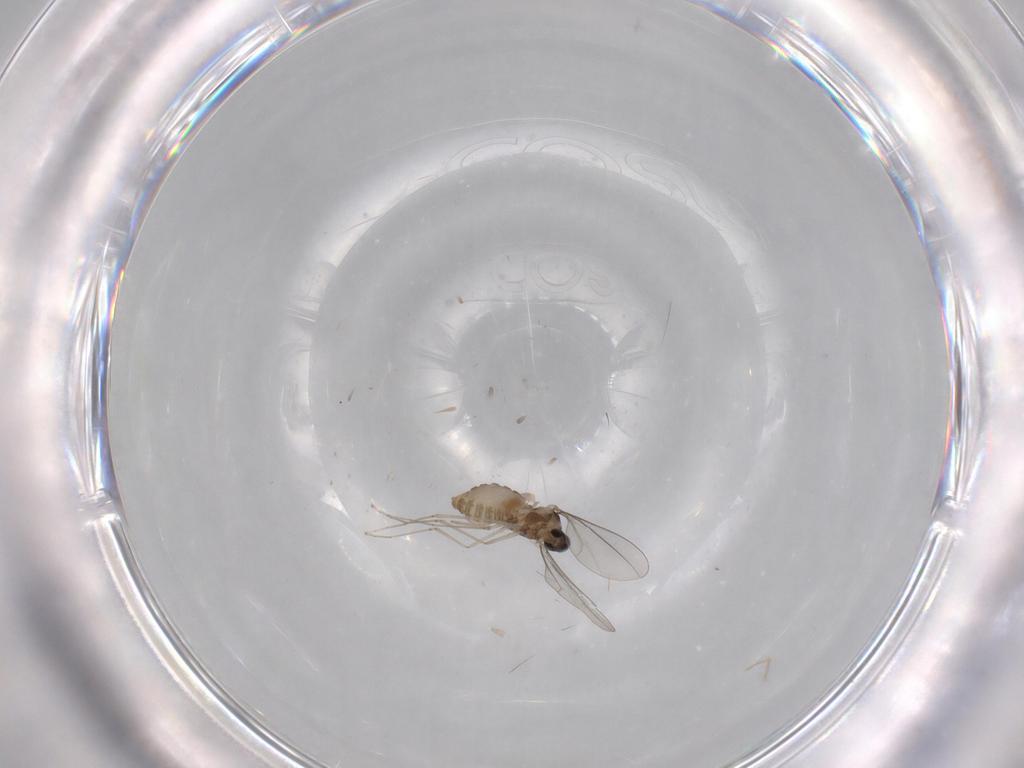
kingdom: Animalia
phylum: Arthropoda
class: Insecta
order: Diptera
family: Cecidomyiidae
